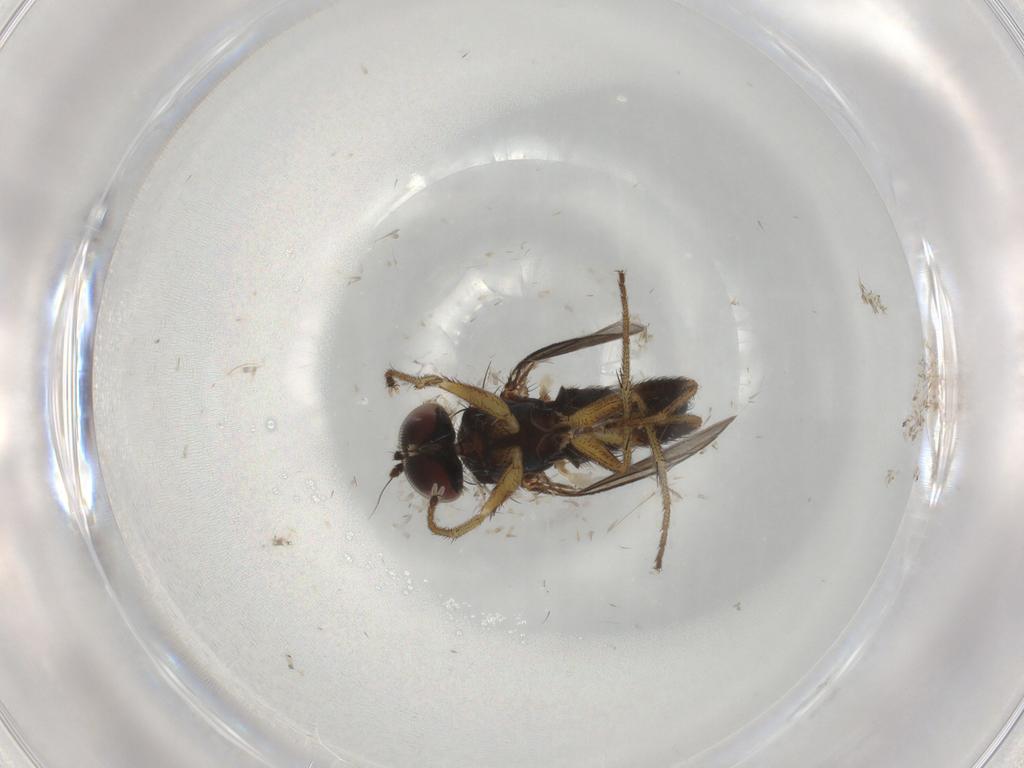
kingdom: Animalia
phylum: Arthropoda
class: Insecta
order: Diptera
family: Dolichopodidae
